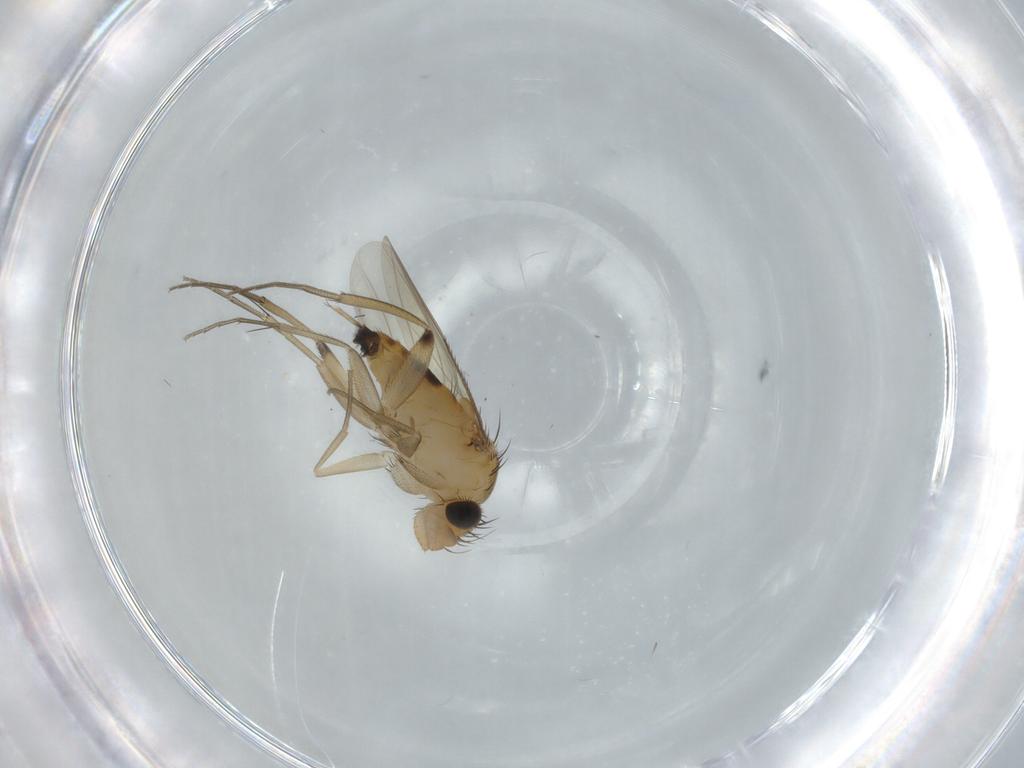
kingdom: Animalia
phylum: Arthropoda
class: Insecta
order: Diptera
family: Phoridae
